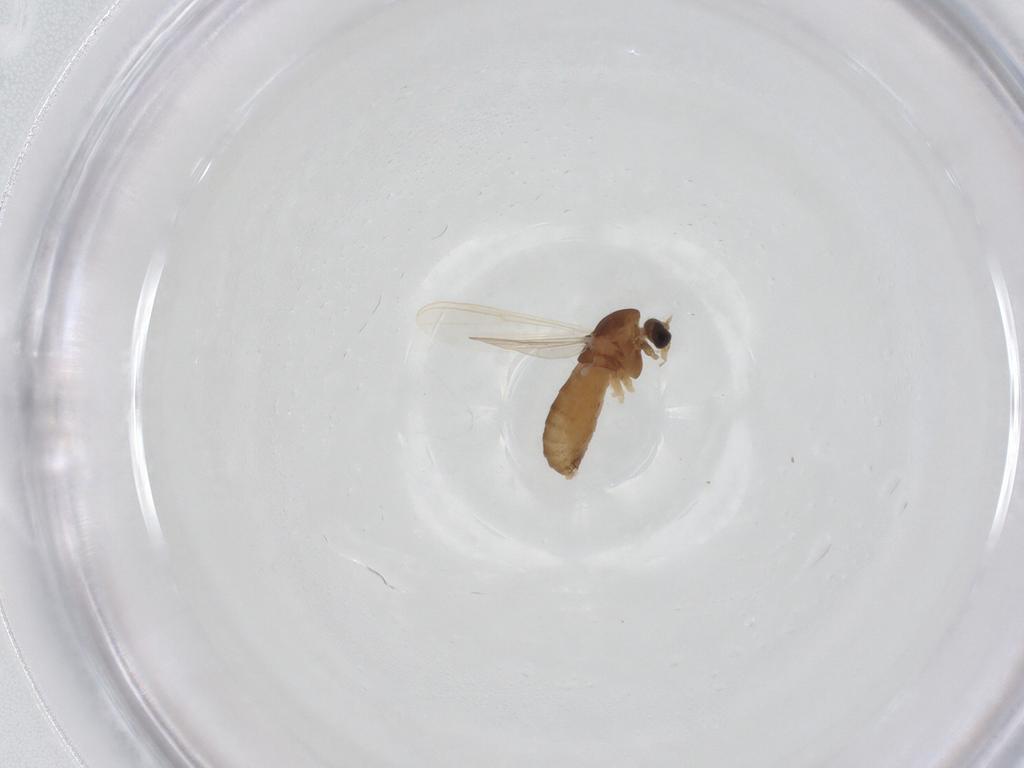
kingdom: Animalia
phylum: Arthropoda
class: Insecta
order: Diptera
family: Chironomidae
